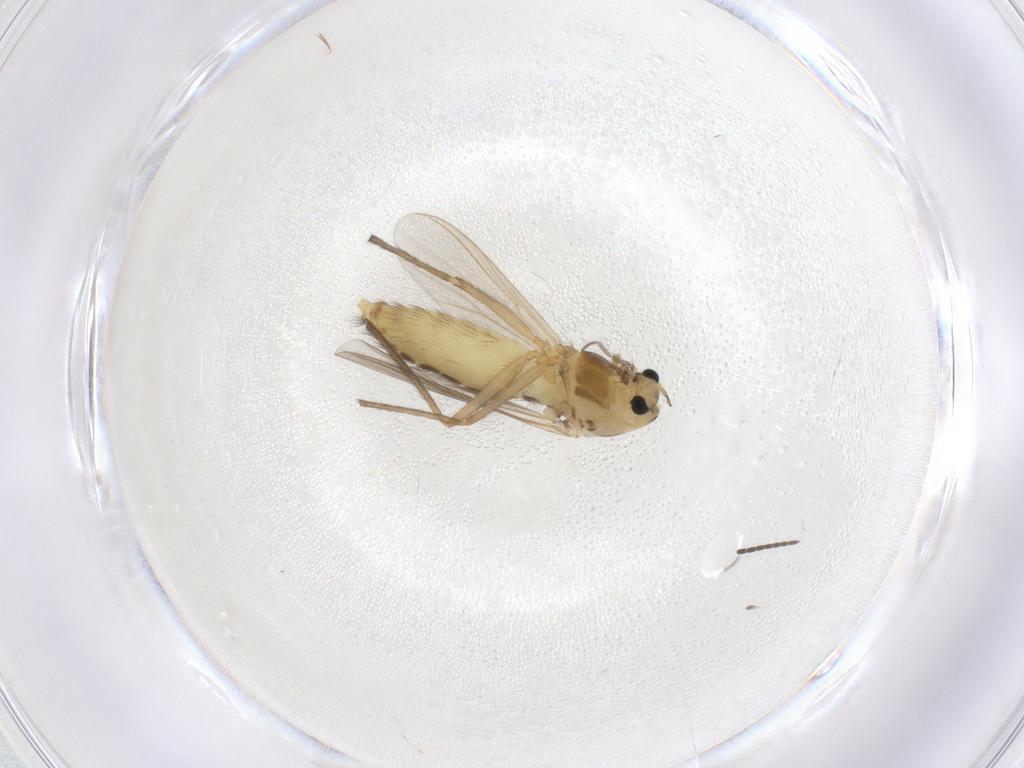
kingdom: Animalia
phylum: Arthropoda
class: Insecta
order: Diptera
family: Chironomidae
